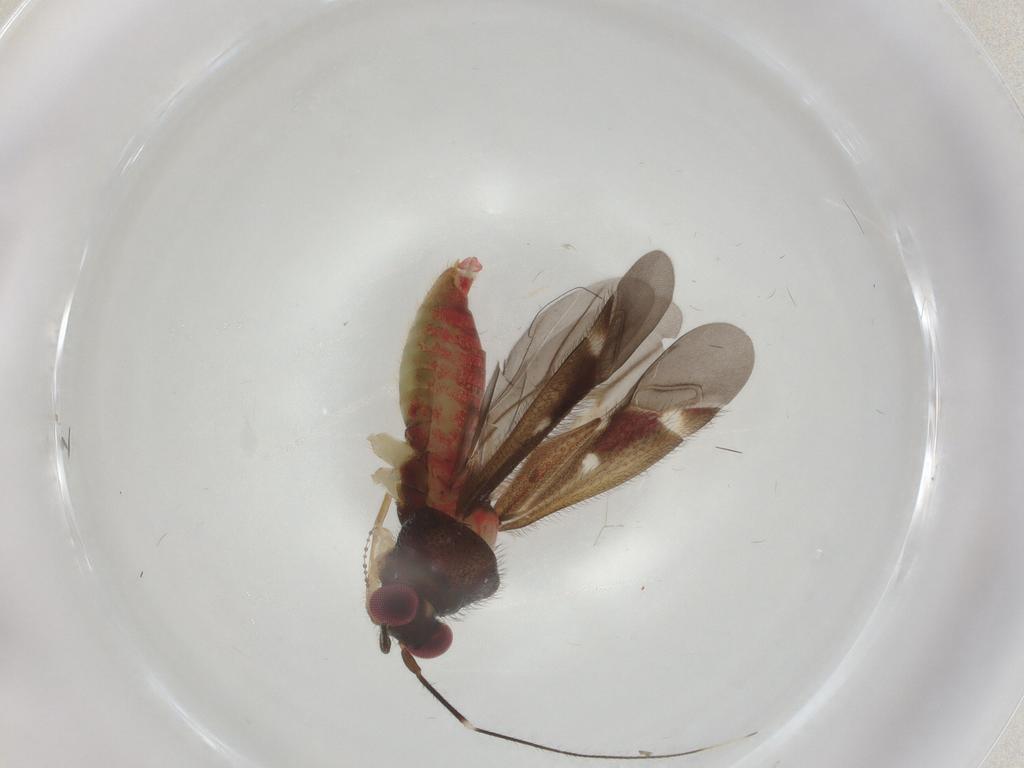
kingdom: Animalia
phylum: Arthropoda
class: Insecta
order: Hemiptera
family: Miridae
